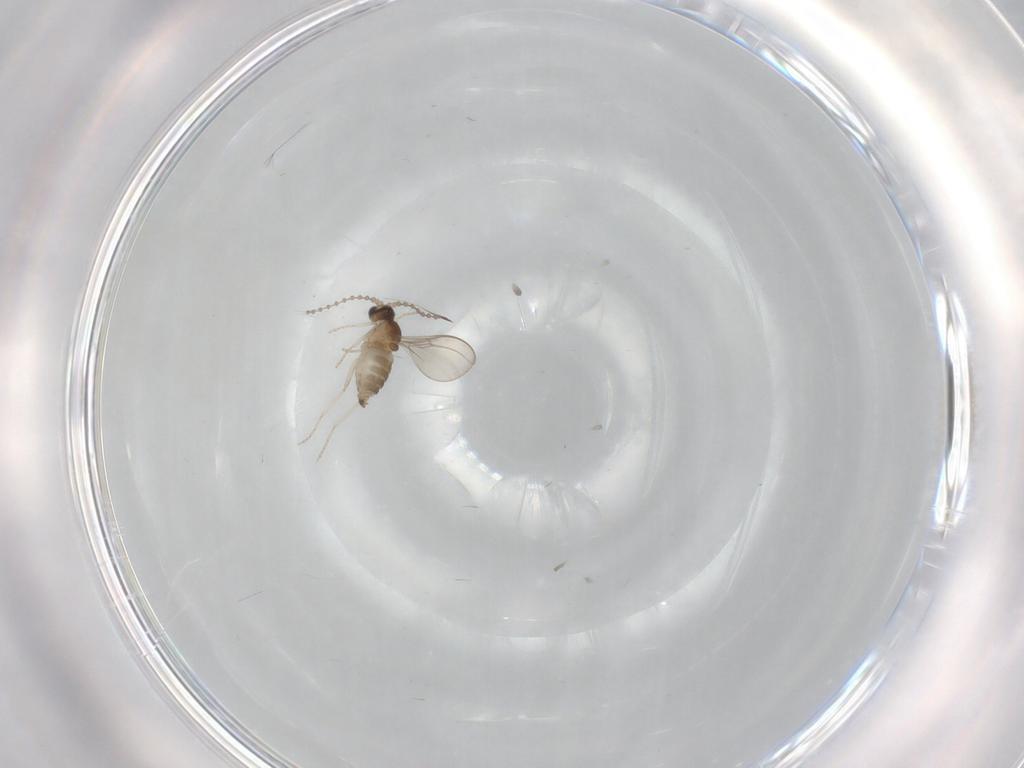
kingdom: Animalia
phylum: Arthropoda
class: Insecta
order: Diptera
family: Cecidomyiidae
